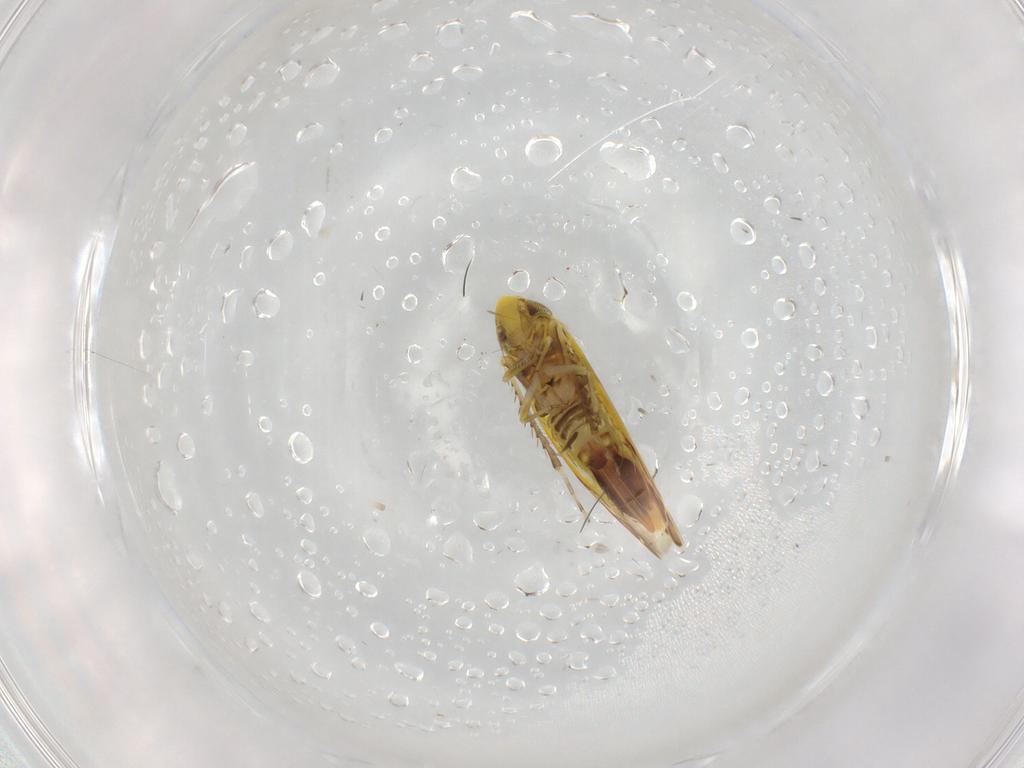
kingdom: Animalia
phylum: Arthropoda
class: Insecta
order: Hemiptera
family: Cicadellidae
